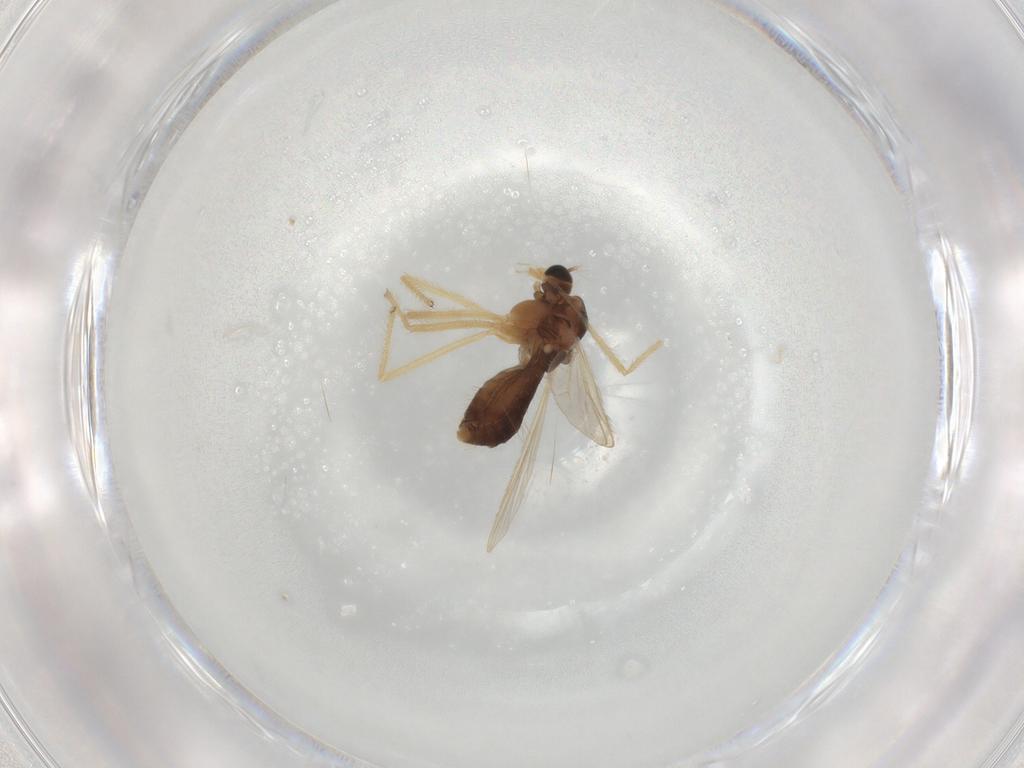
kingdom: Animalia
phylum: Arthropoda
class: Insecta
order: Diptera
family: Chironomidae
